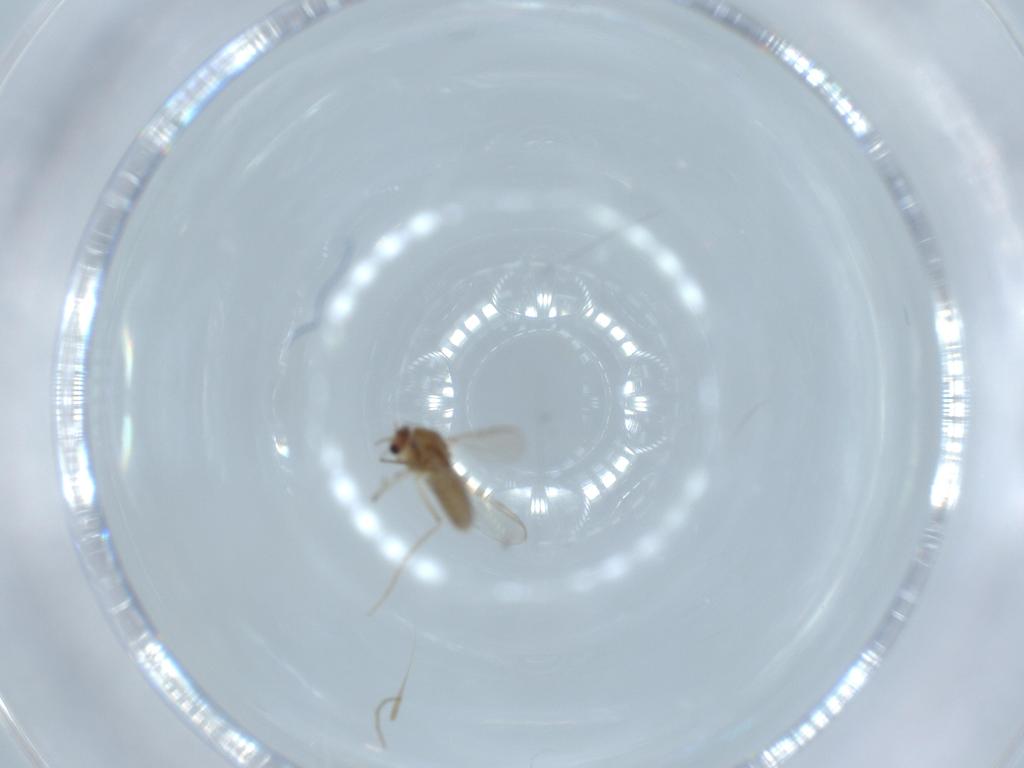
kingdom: Animalia
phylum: Arthropoda
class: Insecta
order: Diptera
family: Chironomidae
